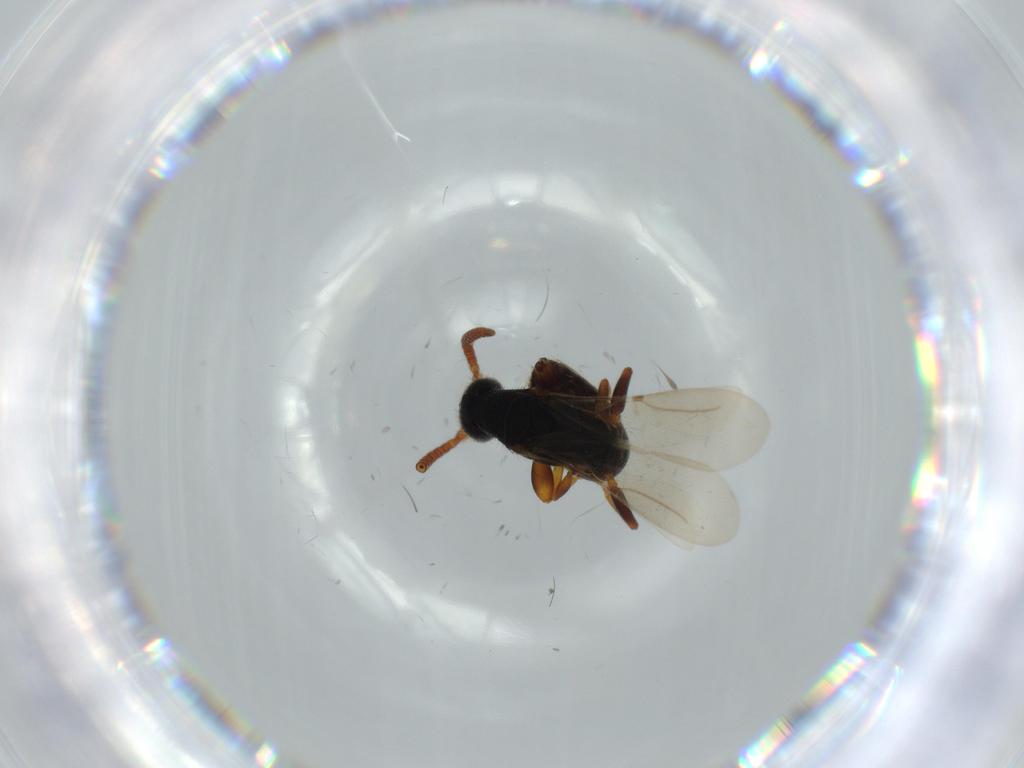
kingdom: Animalia
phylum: Arthropoda
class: Insecta
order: Hymenoptera
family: Bethylidae
